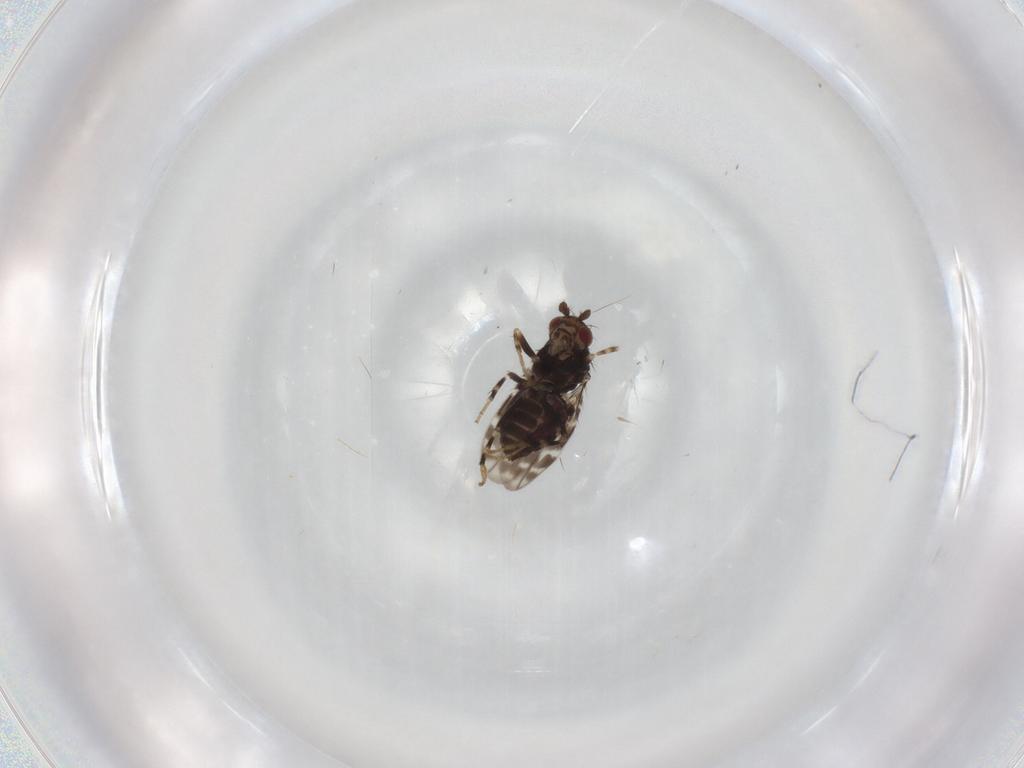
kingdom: Animalia
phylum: Arthropoda
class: Insecta
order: Diptera
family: Sphaeroceridae
